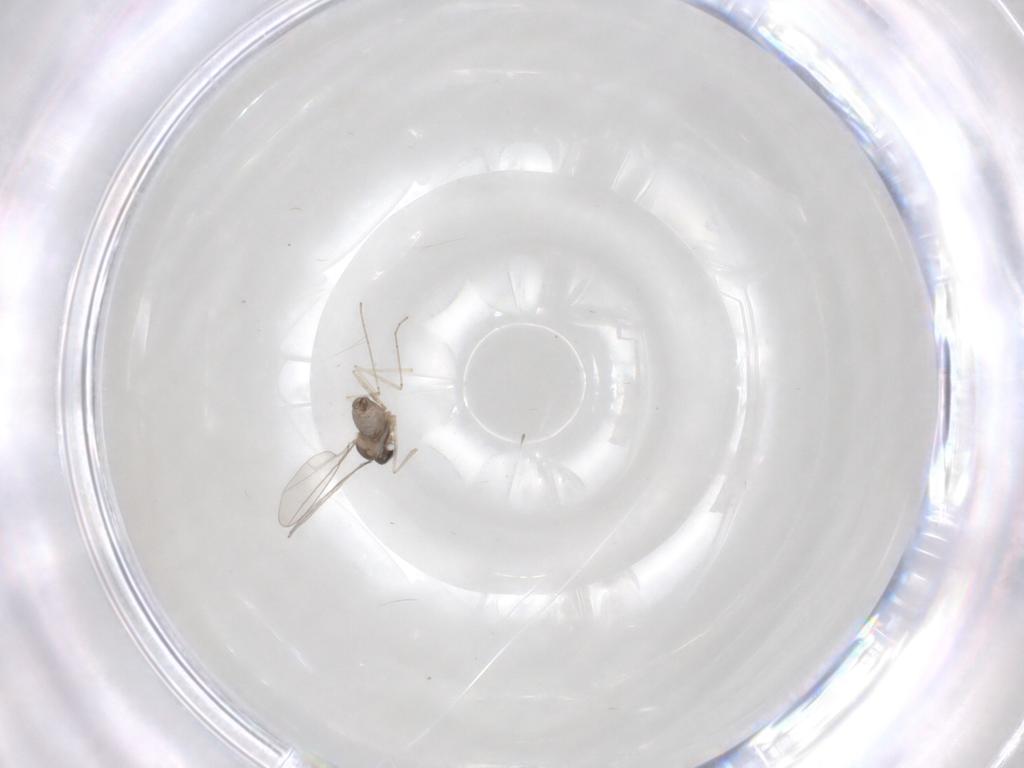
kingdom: Animalia
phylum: Arthropoda
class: Insecta
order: Diptera
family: Cecidomyiidae
